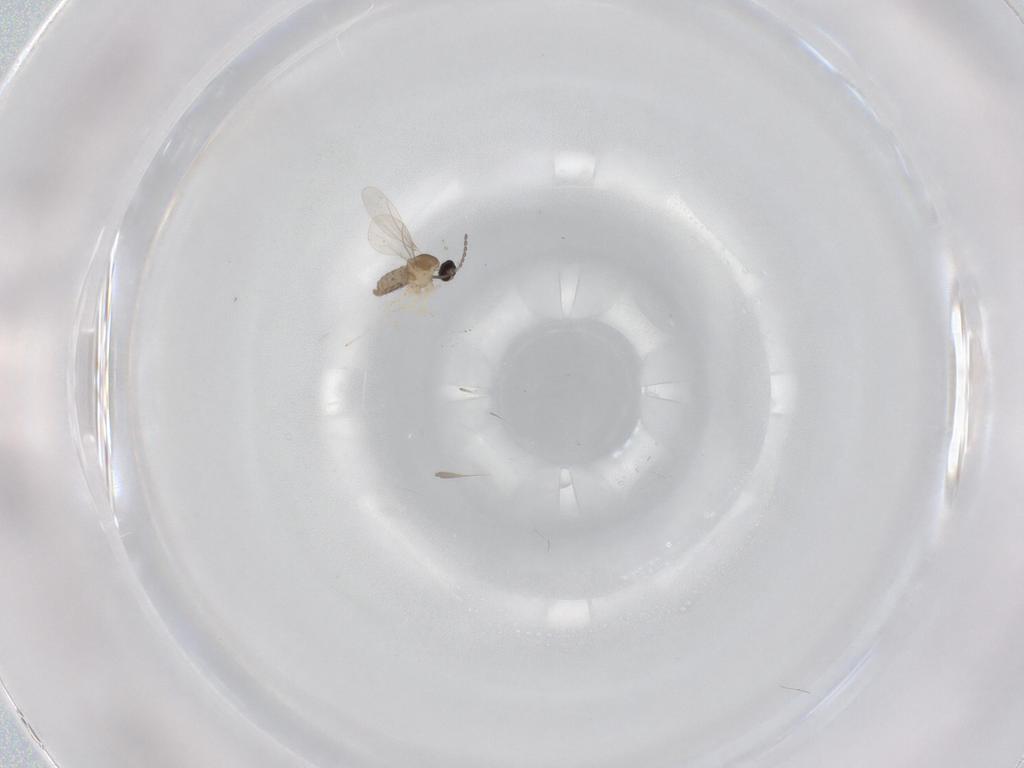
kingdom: Animalia
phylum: Arthropoda
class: Insecta
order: Diptera
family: Cecidomyiidae
